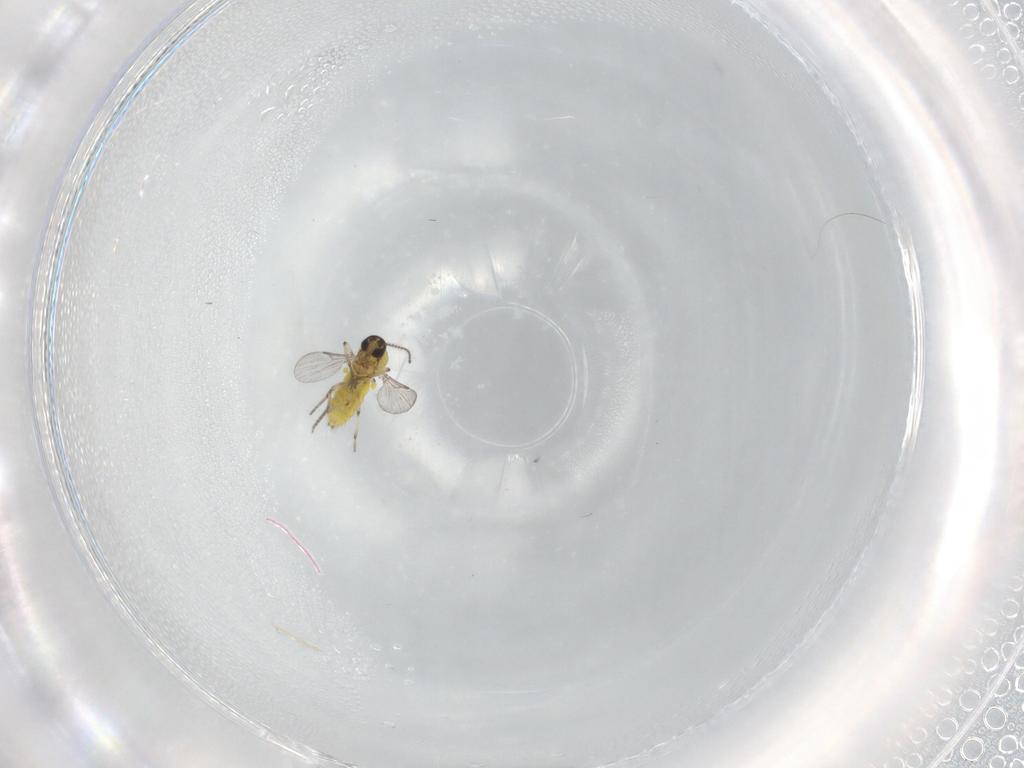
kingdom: Animalia
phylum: Arthropoda
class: Insecta
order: Diptera
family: Ceratopogonidae
